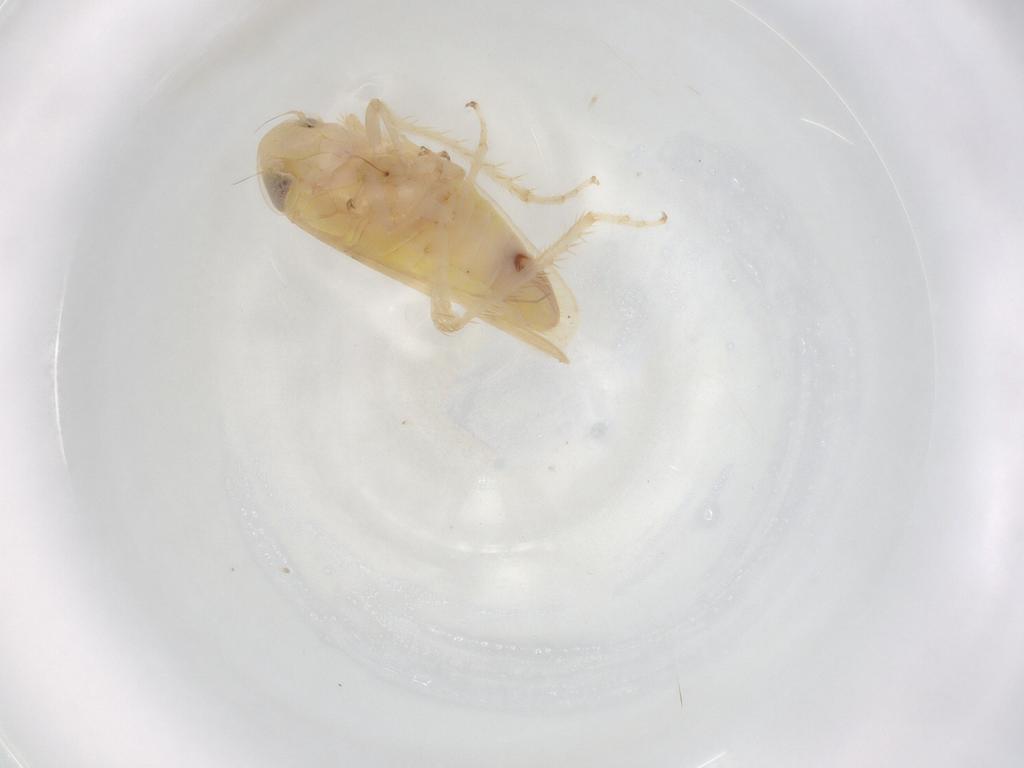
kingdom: Animalia
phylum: Arthropoda
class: Insecta
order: Hemiptera
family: Cicadellidae
